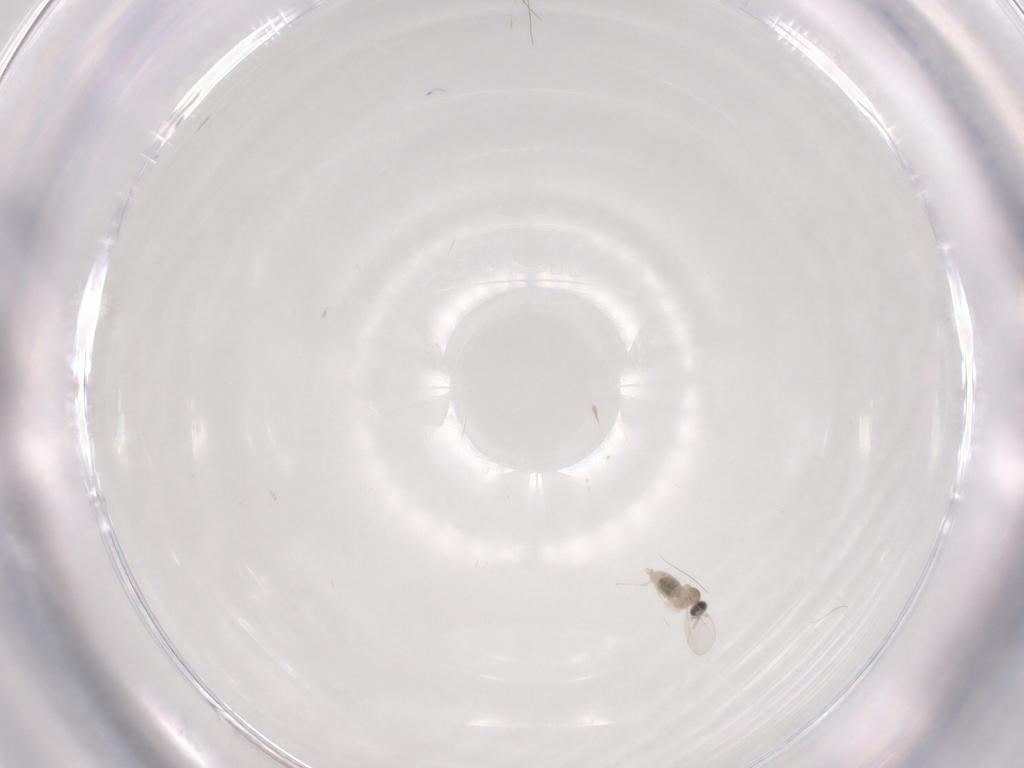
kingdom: Animalia
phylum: Arthropoda
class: Insecta
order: Diptera
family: Cecidomyiidae
